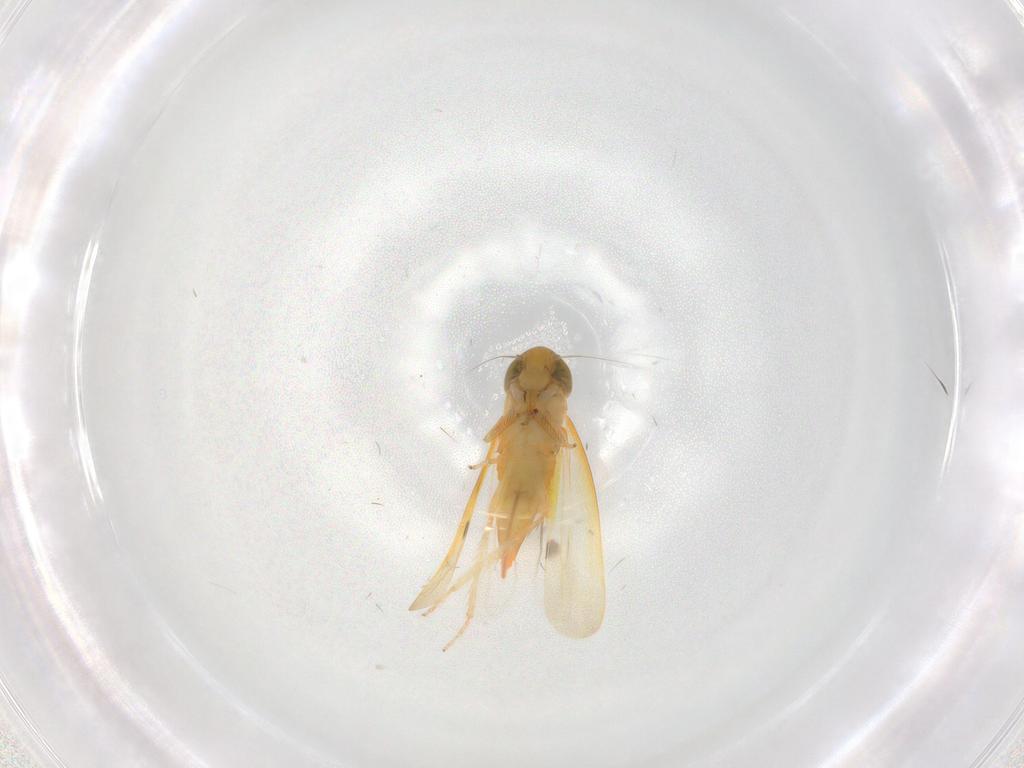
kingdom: Animalia
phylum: Arthropoda
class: Insecta
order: Hemiptera
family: Cicadellidae
